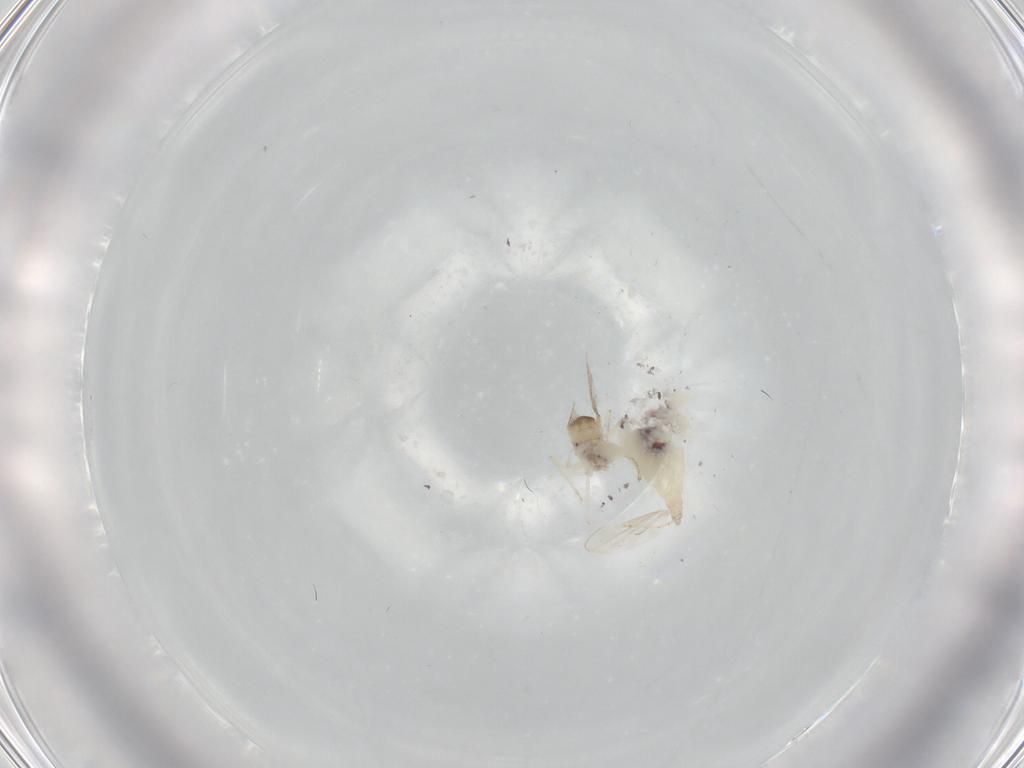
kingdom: Animalia
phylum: Arthropoda
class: Insecta
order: Diptera
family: Cecidomyiidae
